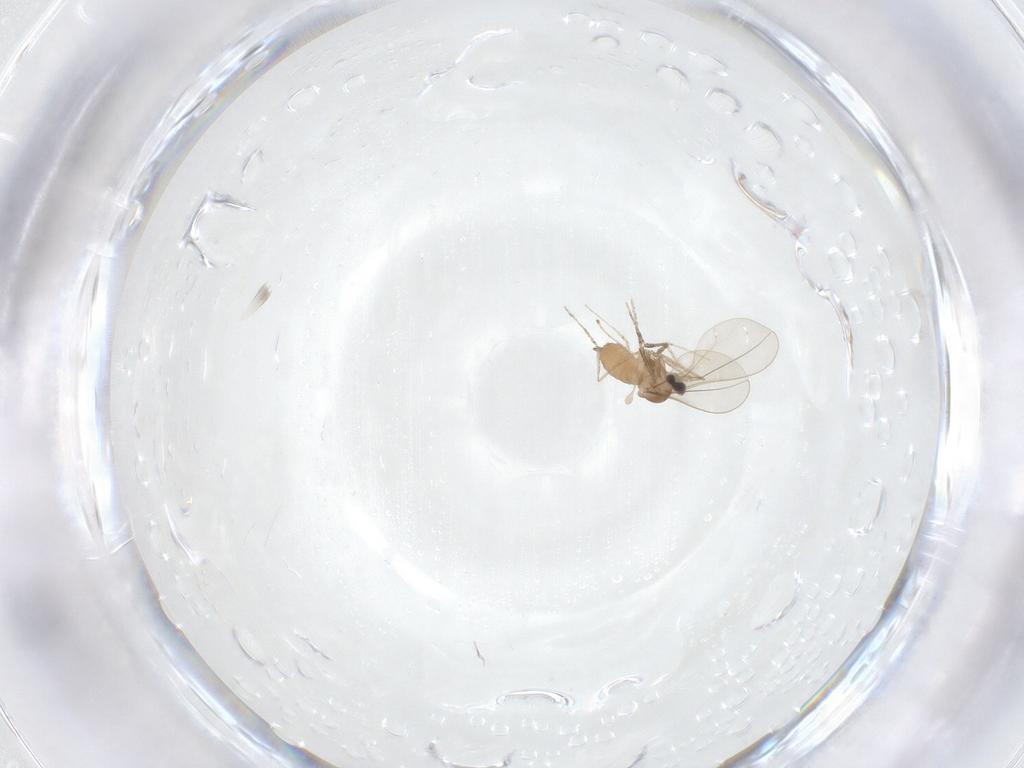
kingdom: Animalia
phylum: Arthropoda
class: Insecta
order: Diptera
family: Cecidomyiidae
